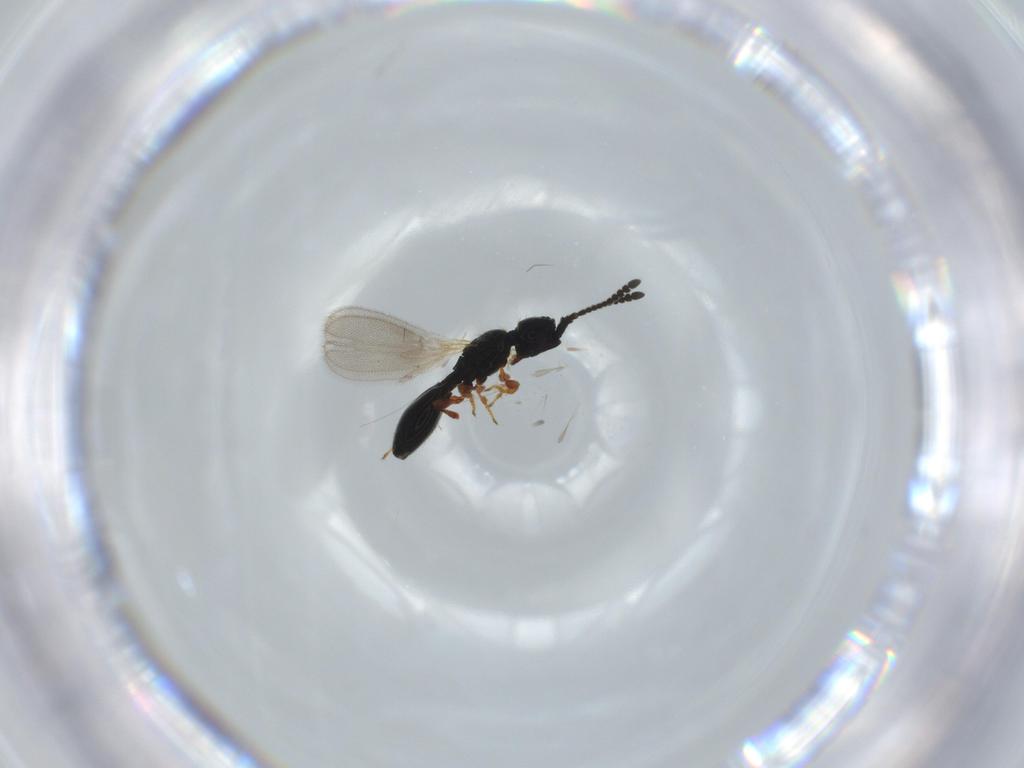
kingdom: Animalia
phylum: Arthropoda
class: Insecta
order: Hymenoptera
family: Diapriidae
